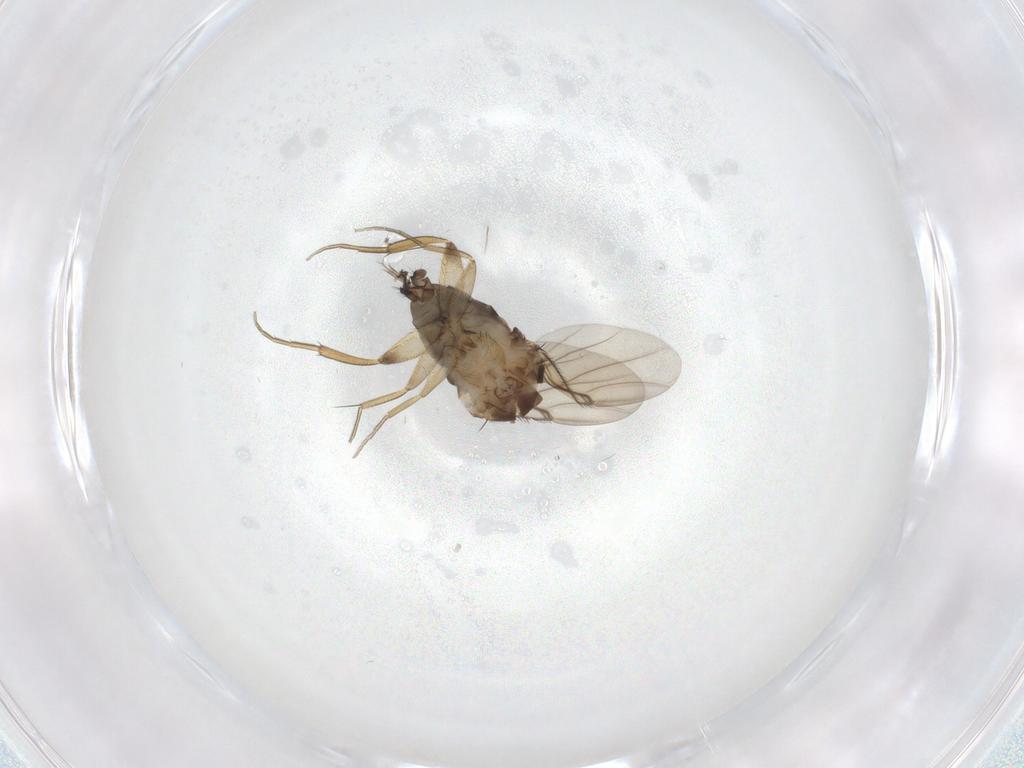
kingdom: Animalia
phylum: Arthropoda
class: Insecta
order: Diptera
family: Phoridae
